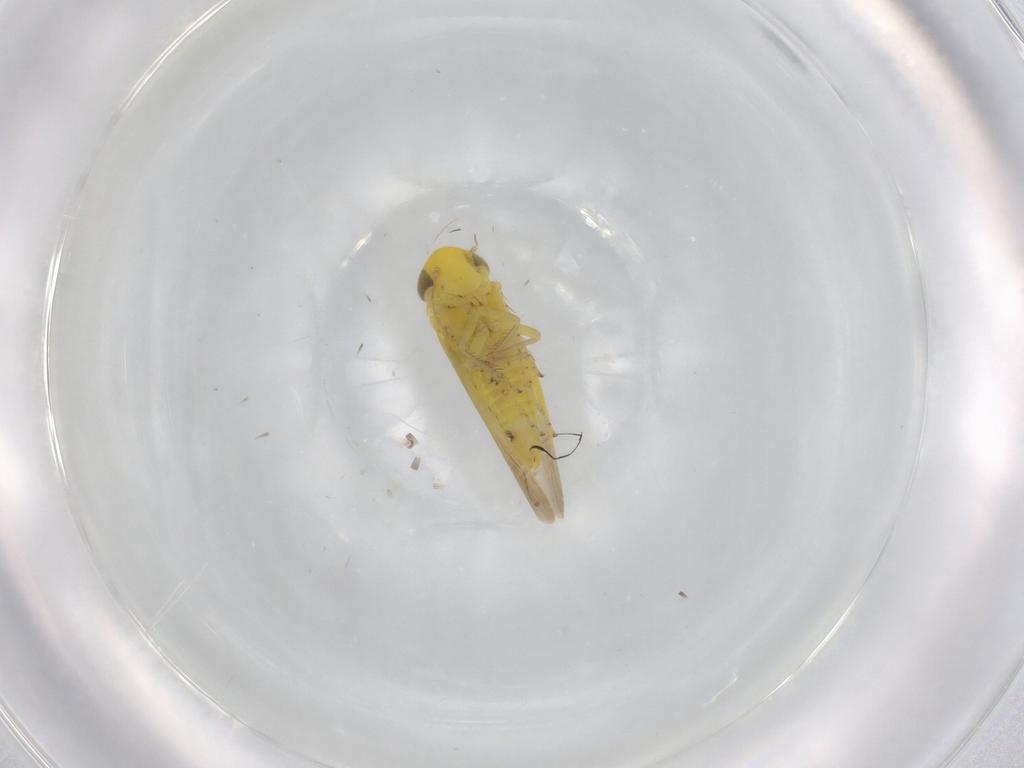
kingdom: Animalia
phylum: Arthropoda
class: Insecta
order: Hemiptera
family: Cicadellidae
